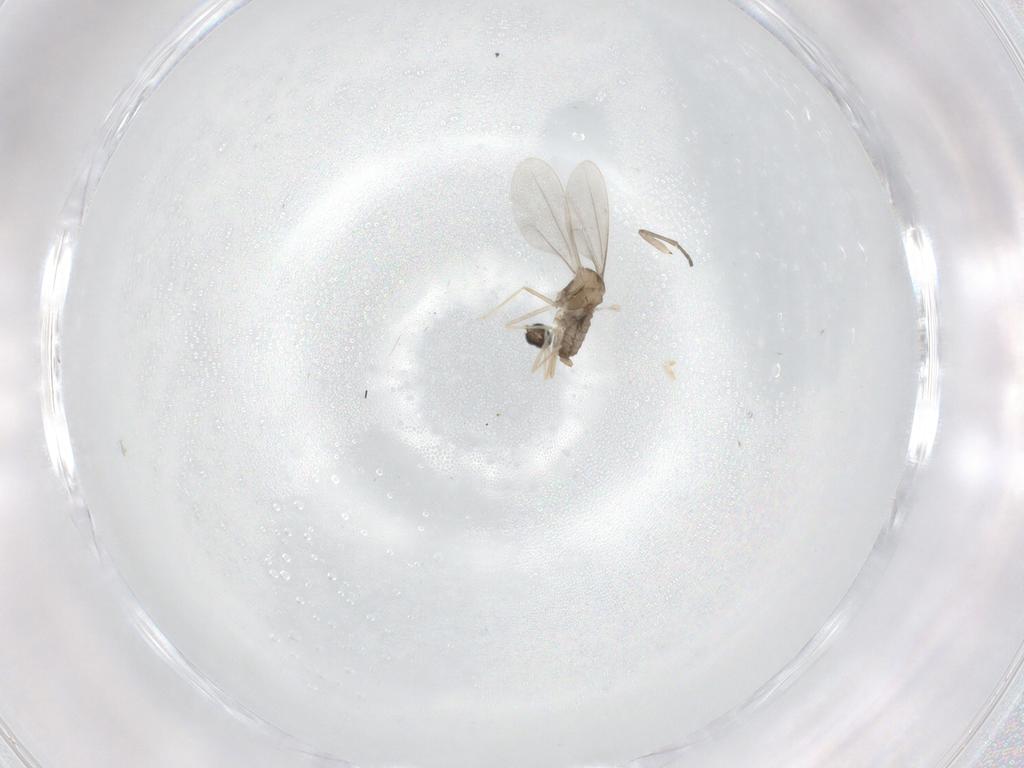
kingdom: Animalia
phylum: Arthropoda
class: Insecta
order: Diptera
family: Cecidomyiidae
